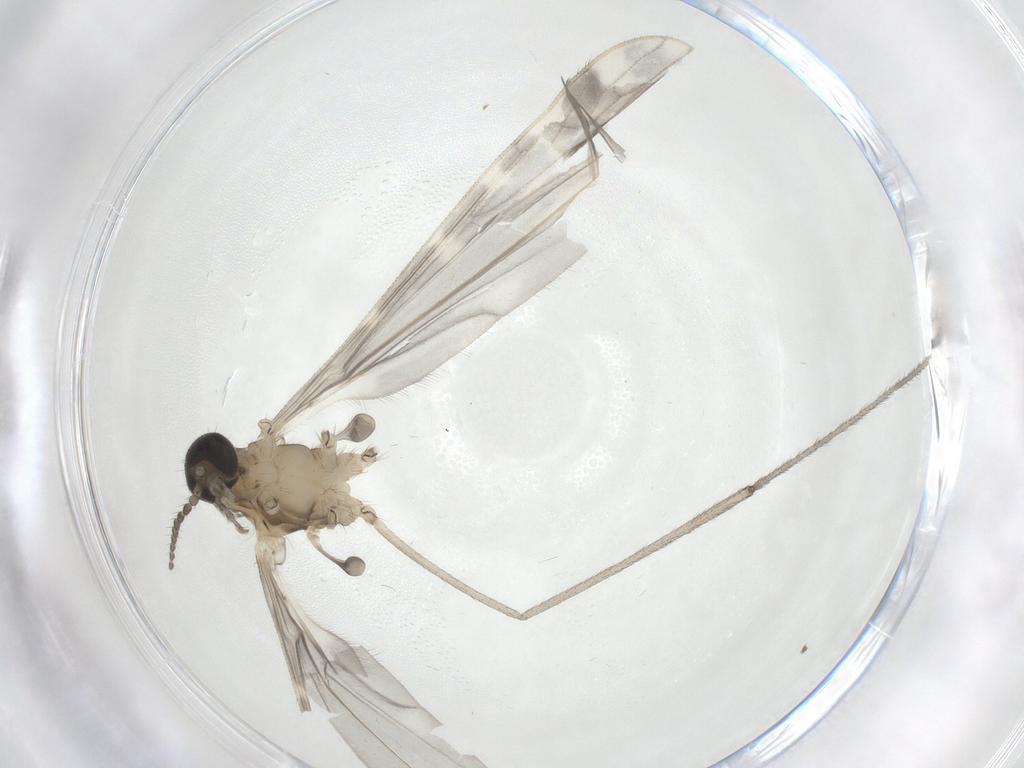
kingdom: Animalia
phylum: Arthropoda
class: Insecta
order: Diptera
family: Limoniidae
